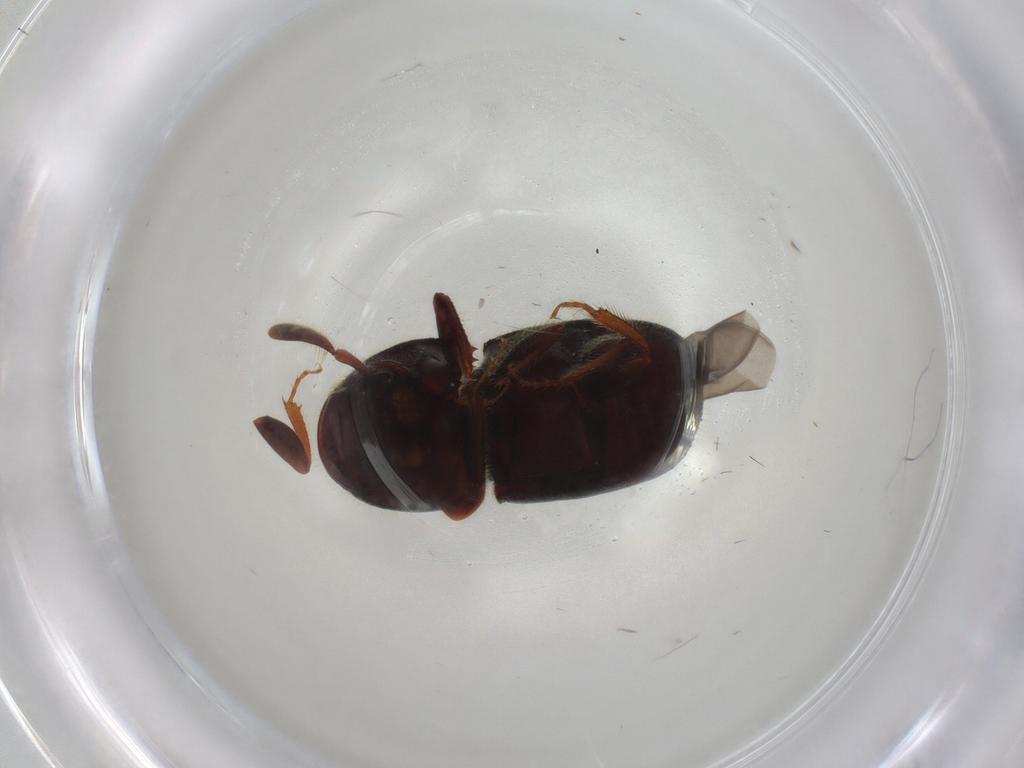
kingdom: Animalia
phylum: Arthropoda
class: Insecta
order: Coleoptera
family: Curculionidae
